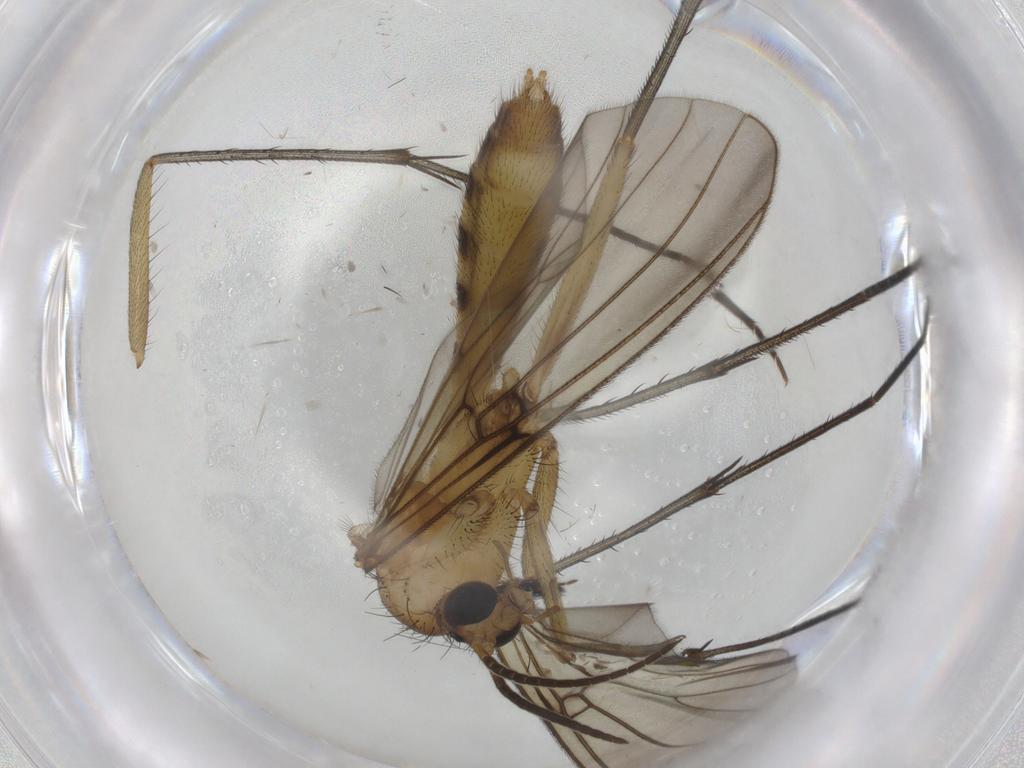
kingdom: Animalia
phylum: Arthropoda
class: Insecta
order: Diptera
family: Mycetophilidae
